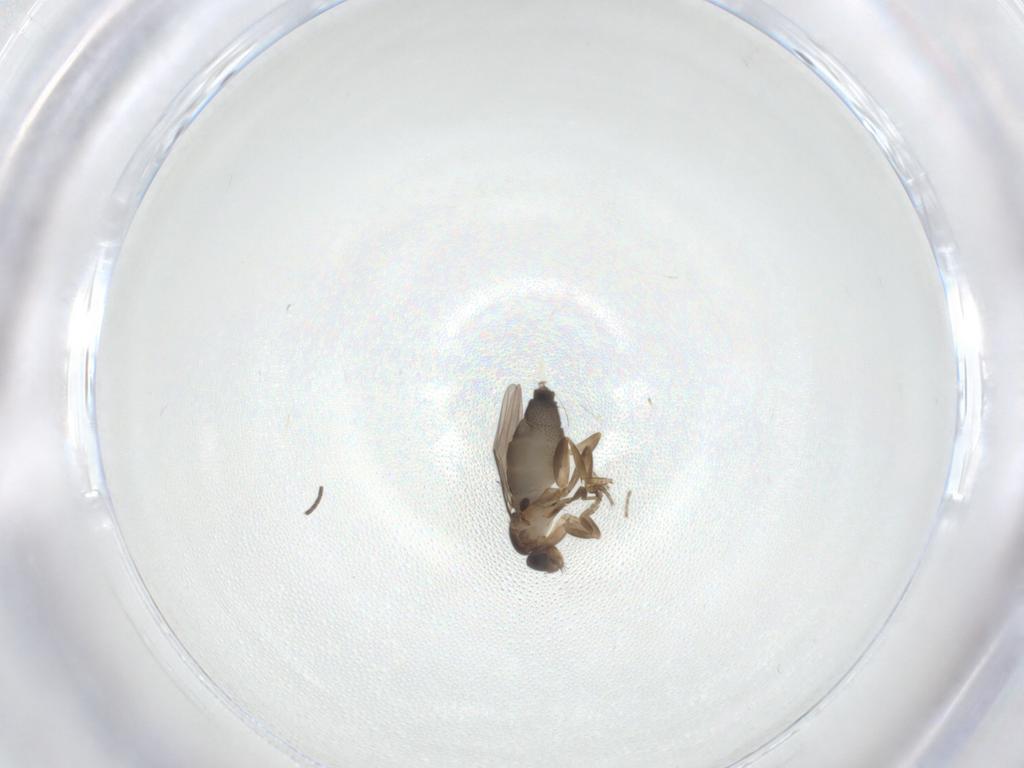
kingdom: Animalia
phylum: Arthropoda
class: Insecta
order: Diptera
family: Phoridae
